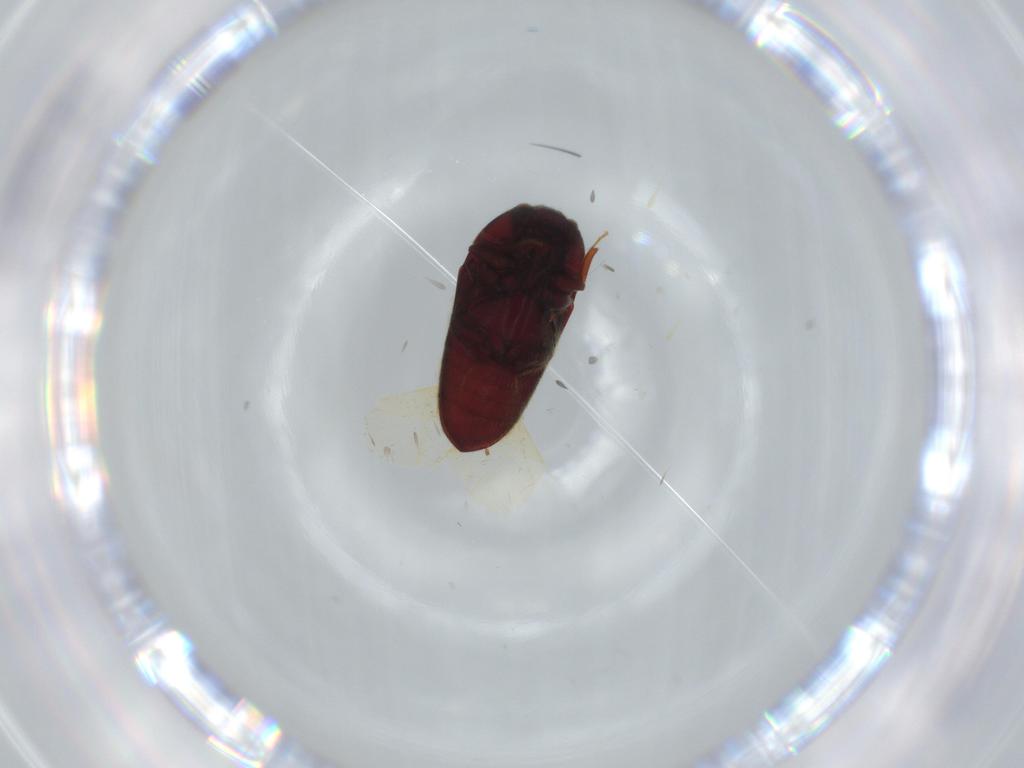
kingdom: Animalia
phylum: Arthropoda
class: Insecta
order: Coleoptera
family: Throscidae
